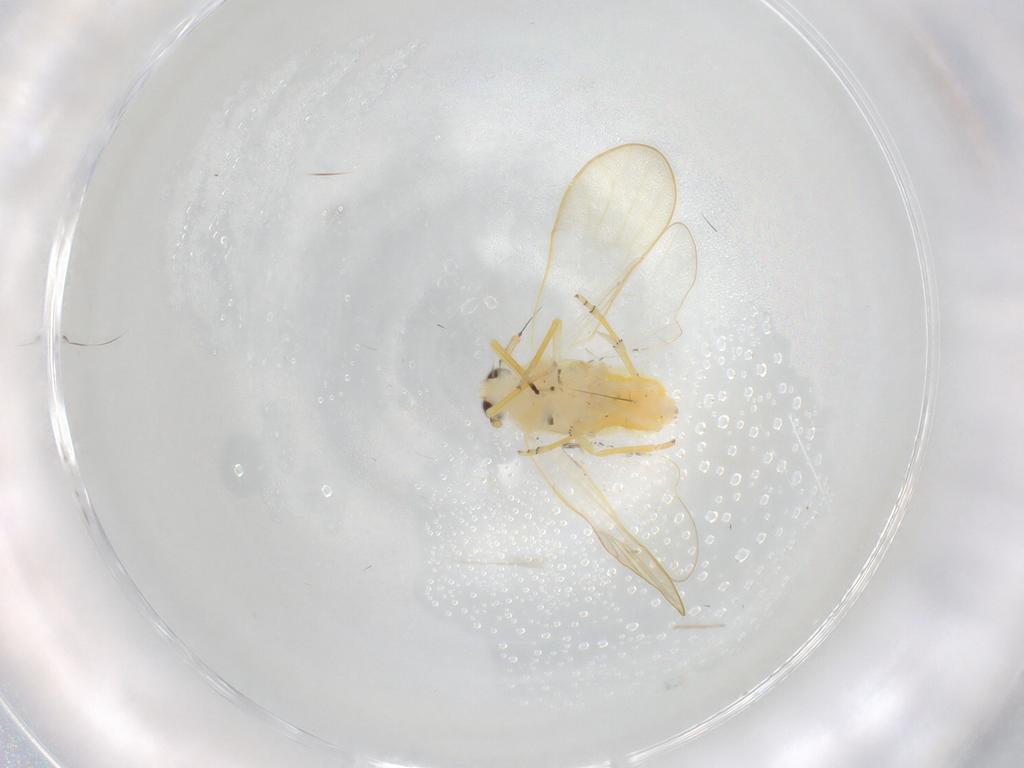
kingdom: Animalia
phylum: Arthropoda
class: Insecta
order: Hemiptera
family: Delphacidae
